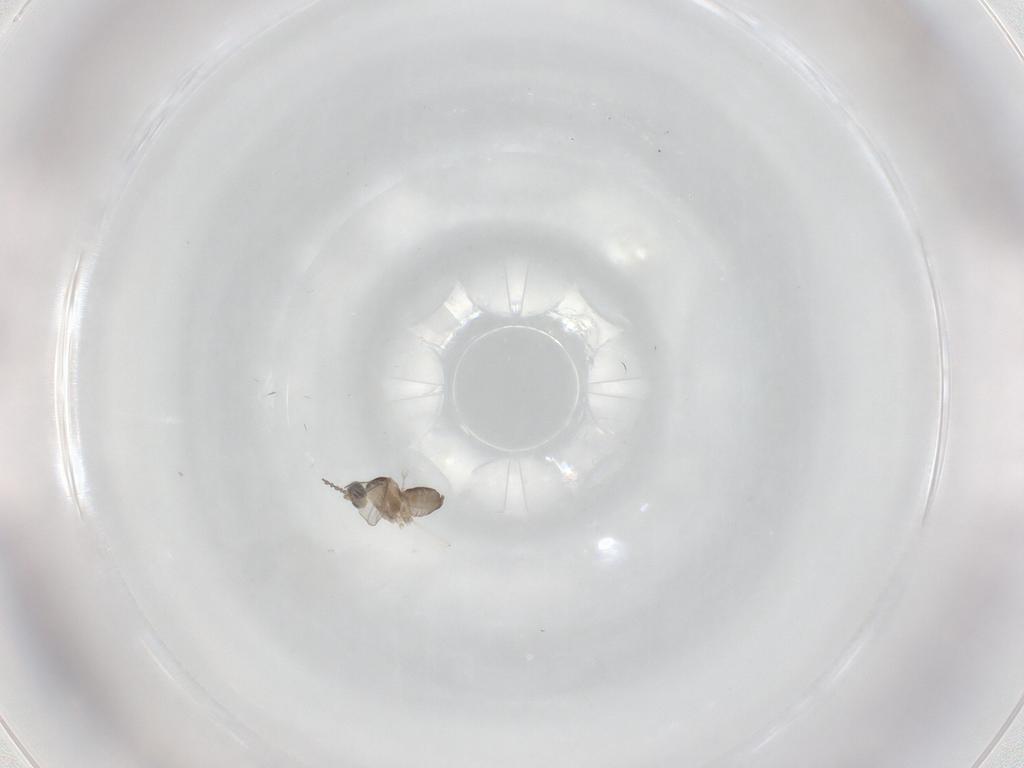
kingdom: Animalia
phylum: Arthropoda
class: Insecta
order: Diptera
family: Cecidomyiidae
